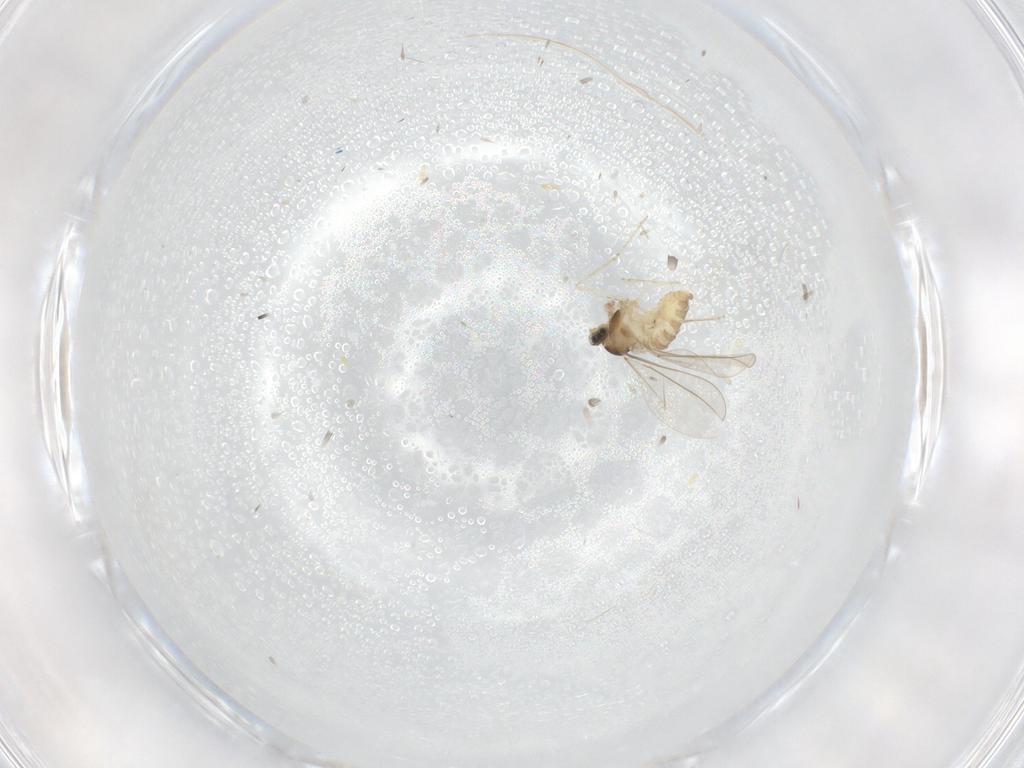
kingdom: Animalia
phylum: Arthropoda
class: Insecta
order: Diptera
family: Cecidomyiidae
